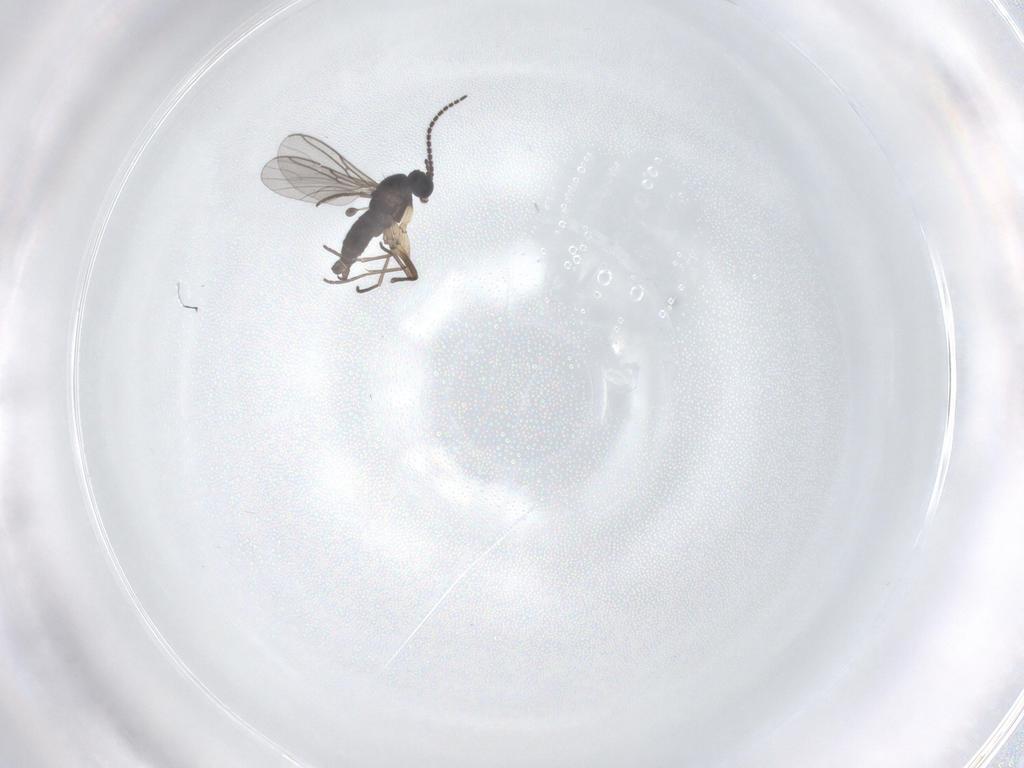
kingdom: Animalia
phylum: Arthropoda
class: Insecta
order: Diptera
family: Sciaridae
